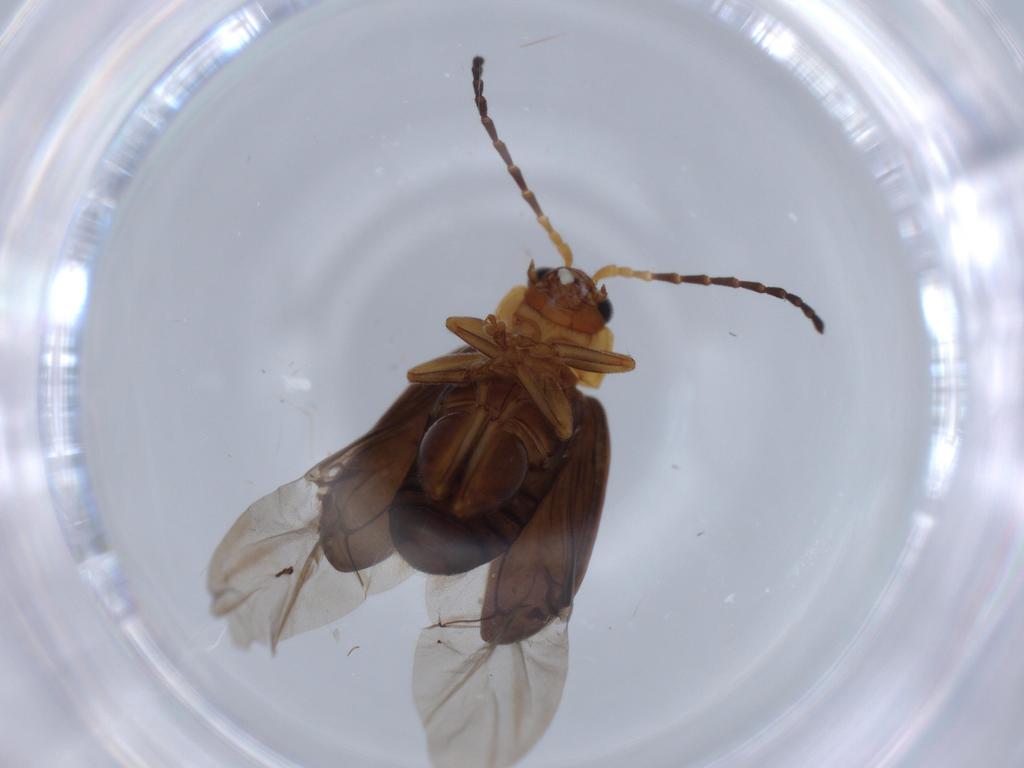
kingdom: Animalia
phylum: Arthropoda
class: Insecta
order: Coleoptera
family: Chrysomelidae
